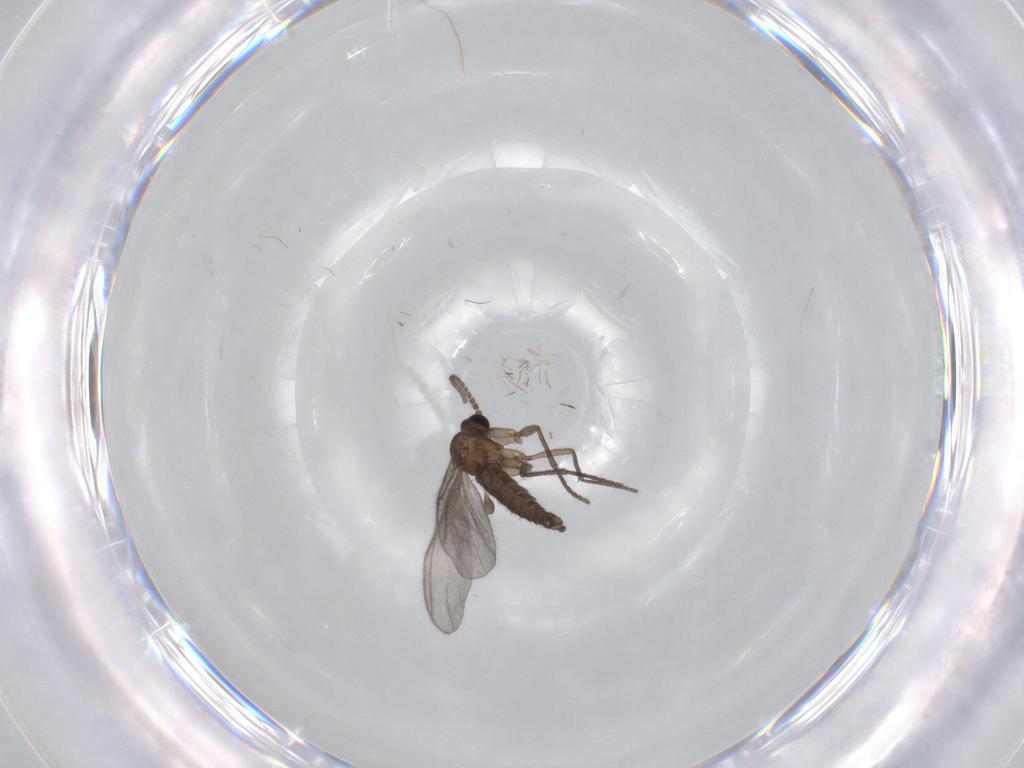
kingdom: Animalia
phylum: Arthropoda
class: Insecta
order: Diptera
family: Sciaridae
